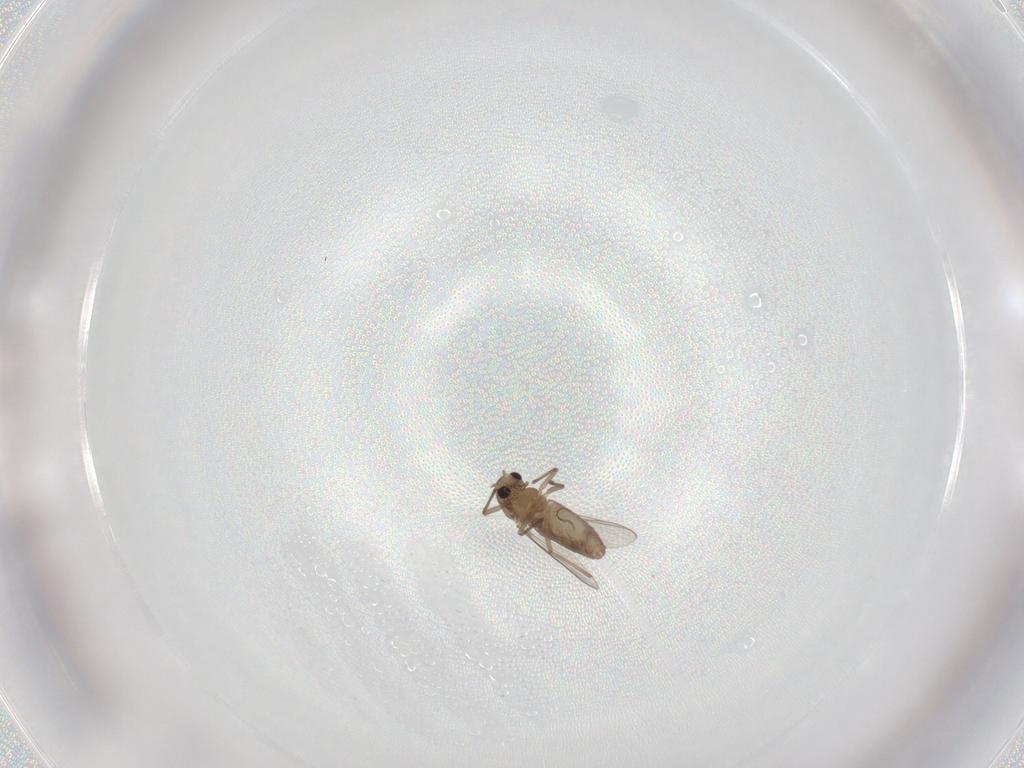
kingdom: Animalia
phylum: Arthropoda
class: Insecta
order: Diptera
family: Chironomidae
